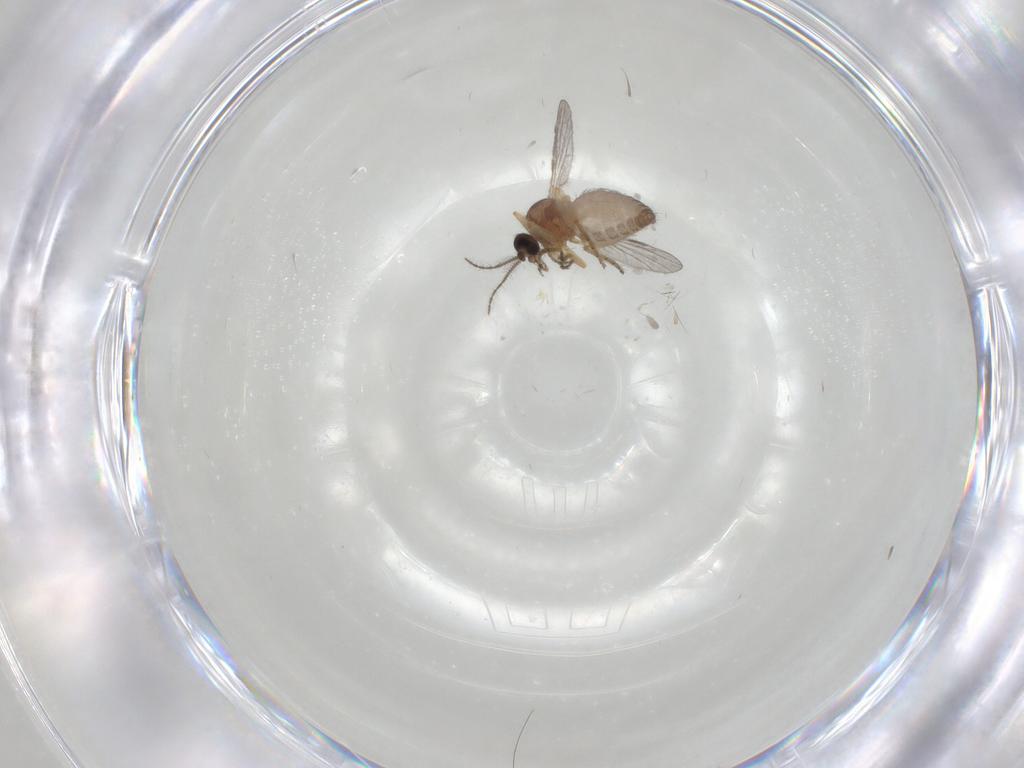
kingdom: Animalia
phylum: Arthropoda
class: Insecta
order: Diptera
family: Ceratopogonidae
